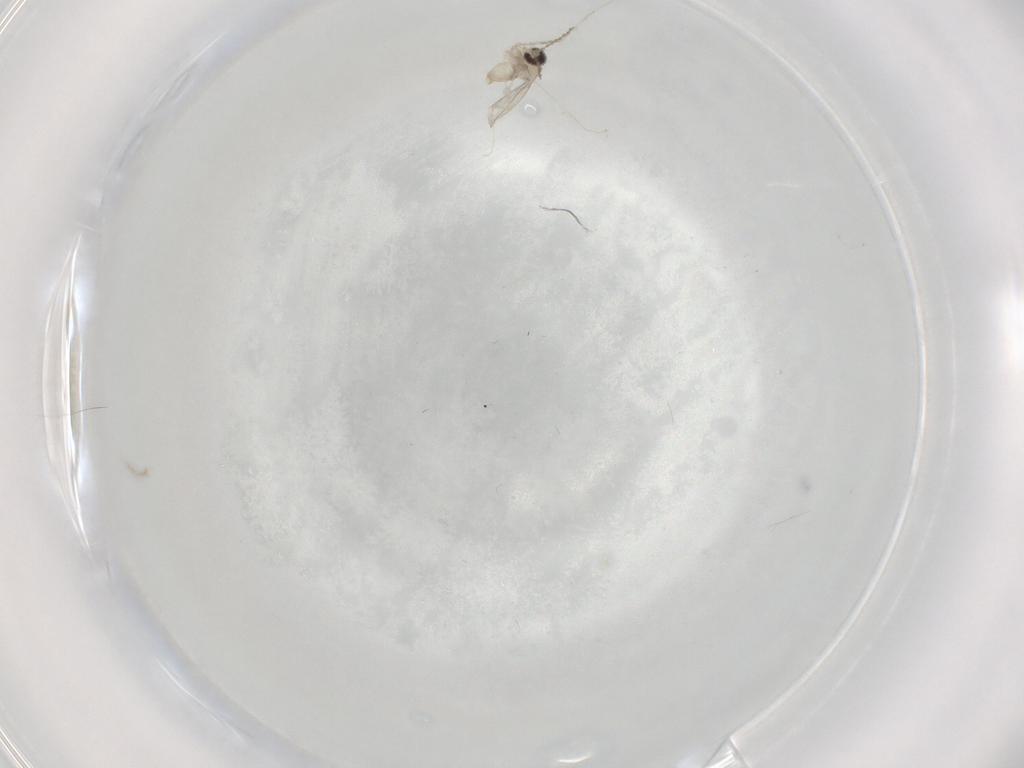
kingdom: Animalia
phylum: Arthropoda
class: Insecta
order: Diptera
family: Cecidomyiidae
